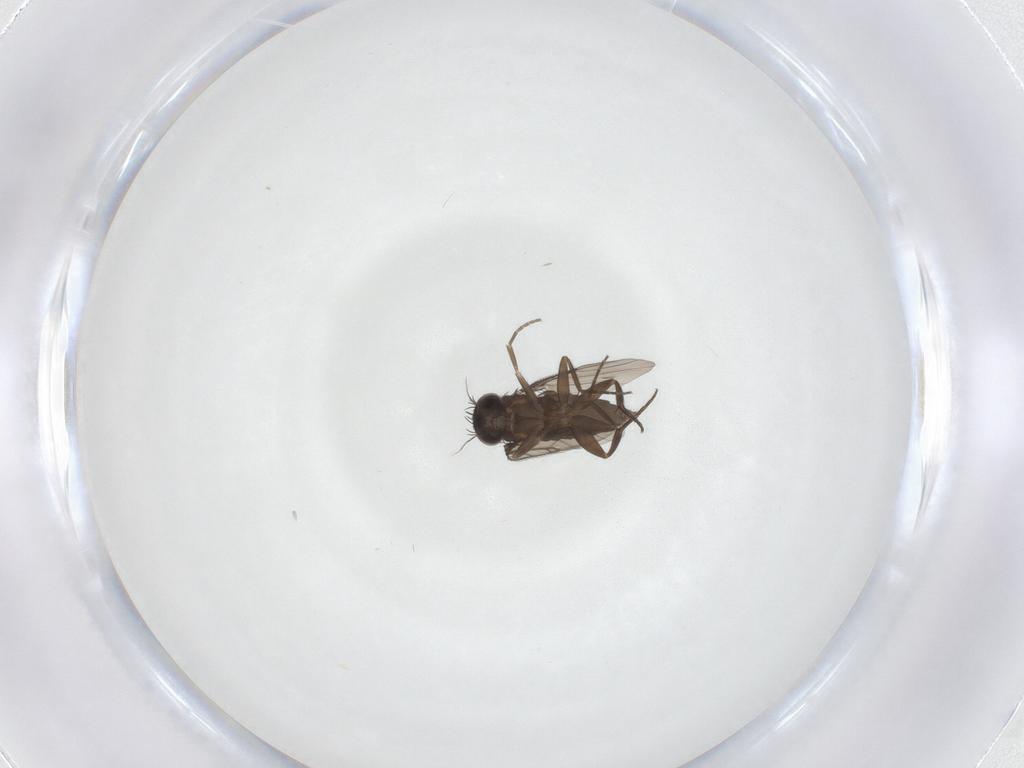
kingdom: Animalia
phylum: Arthropoda
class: Insecta
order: Diptera
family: Phoridae
